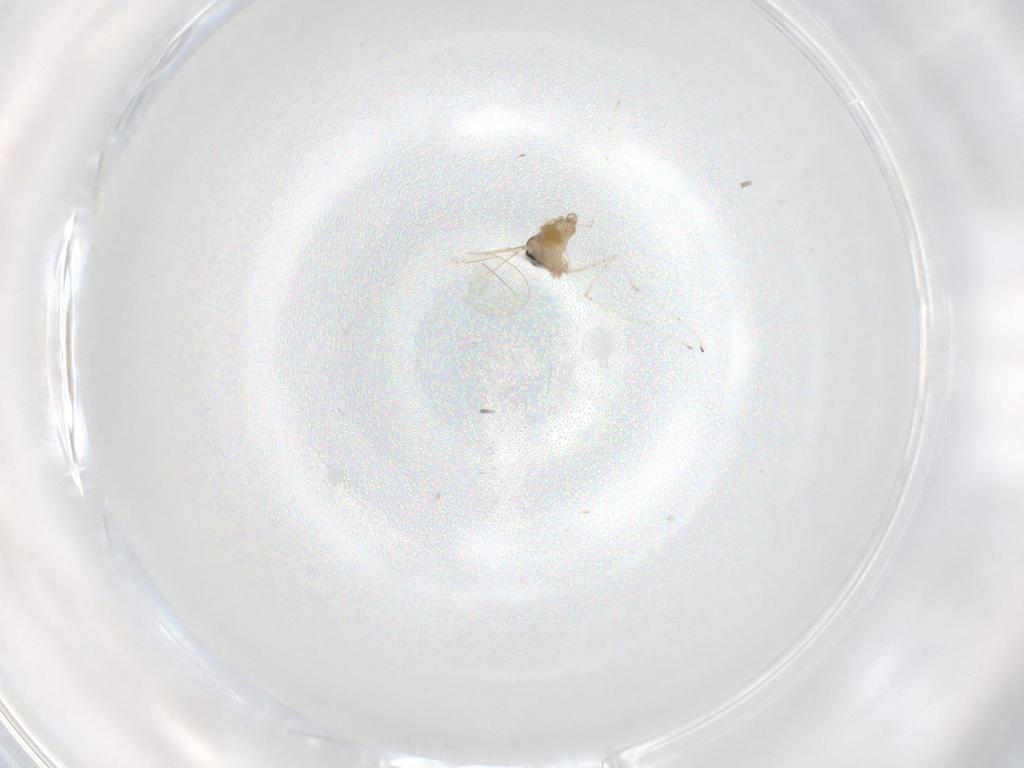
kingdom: Animalia
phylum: Arthropoda
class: Insecta
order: Diptera
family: Cecidomyiidae
